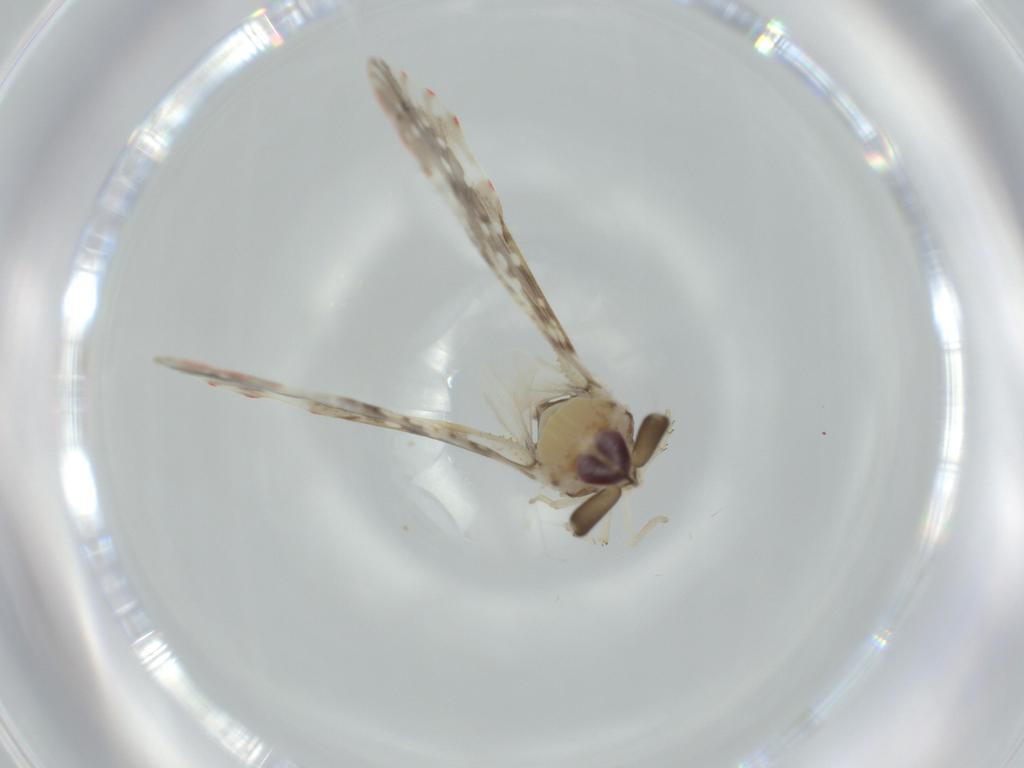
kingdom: Animalia
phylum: Arthropoda
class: Insecta
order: Hemiptera
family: Derbidae
